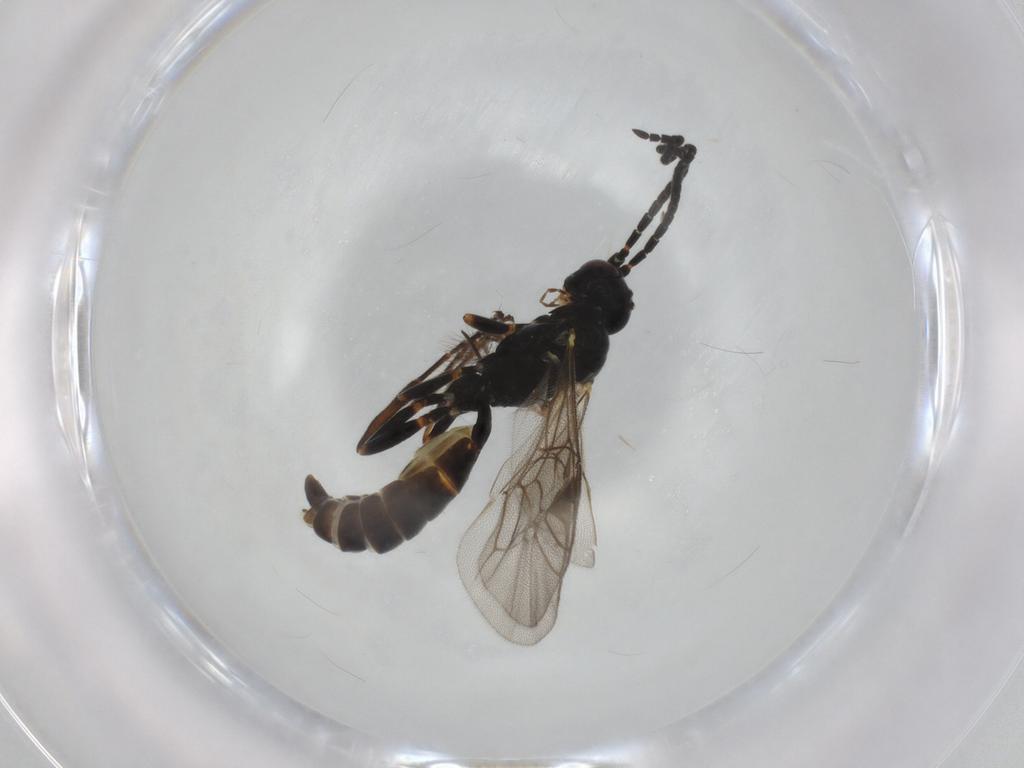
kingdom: Animalia
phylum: Arthropoda
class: Insecta
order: Hymenoptera
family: Ichneumonidae
